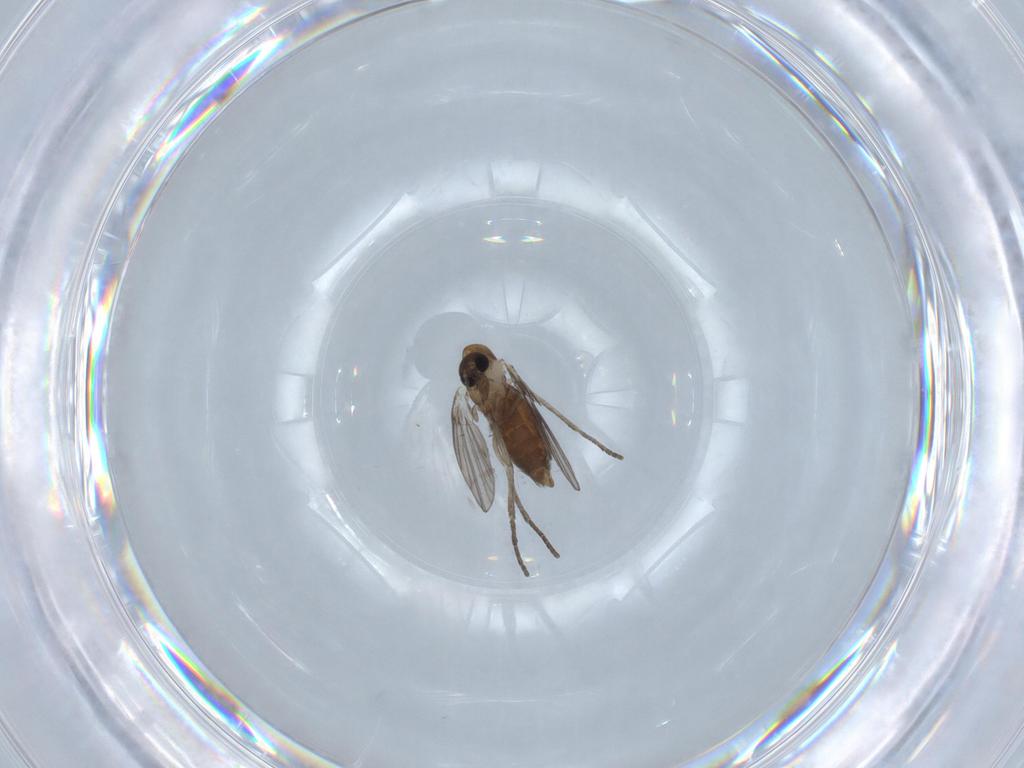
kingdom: Animalia
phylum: Arthropoda
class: Insecta
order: Diptera
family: Psychodidae
